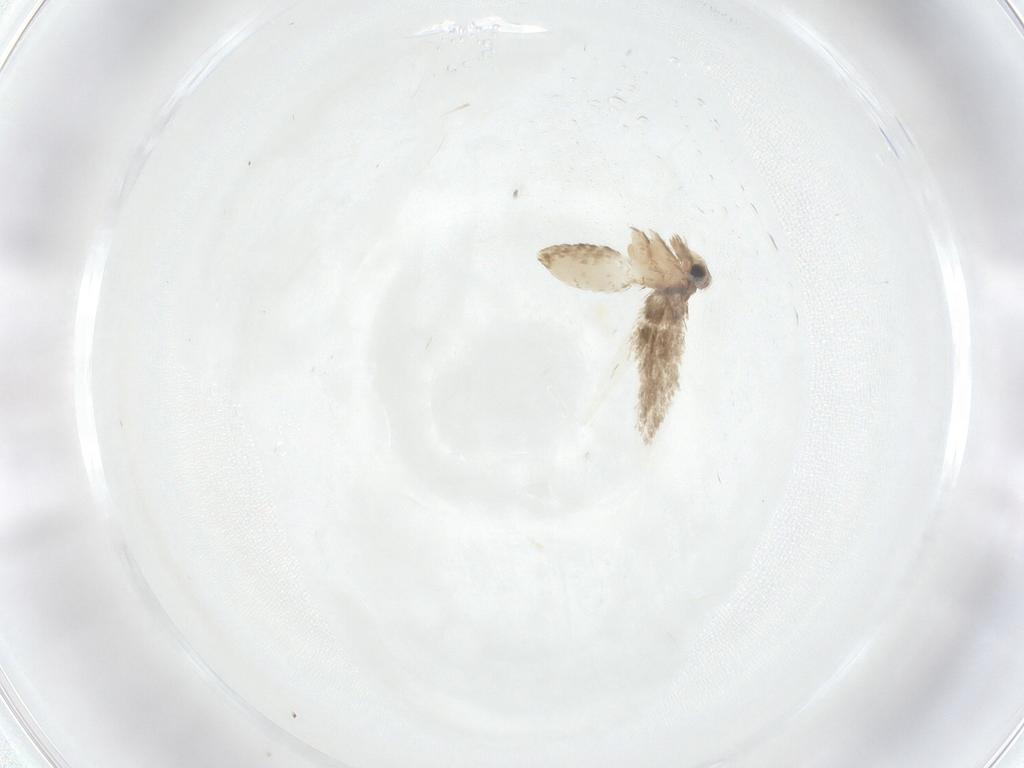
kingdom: Animalia
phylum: Arthropoda
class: Insecta
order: Lepidoptera
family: Nepticulidae
